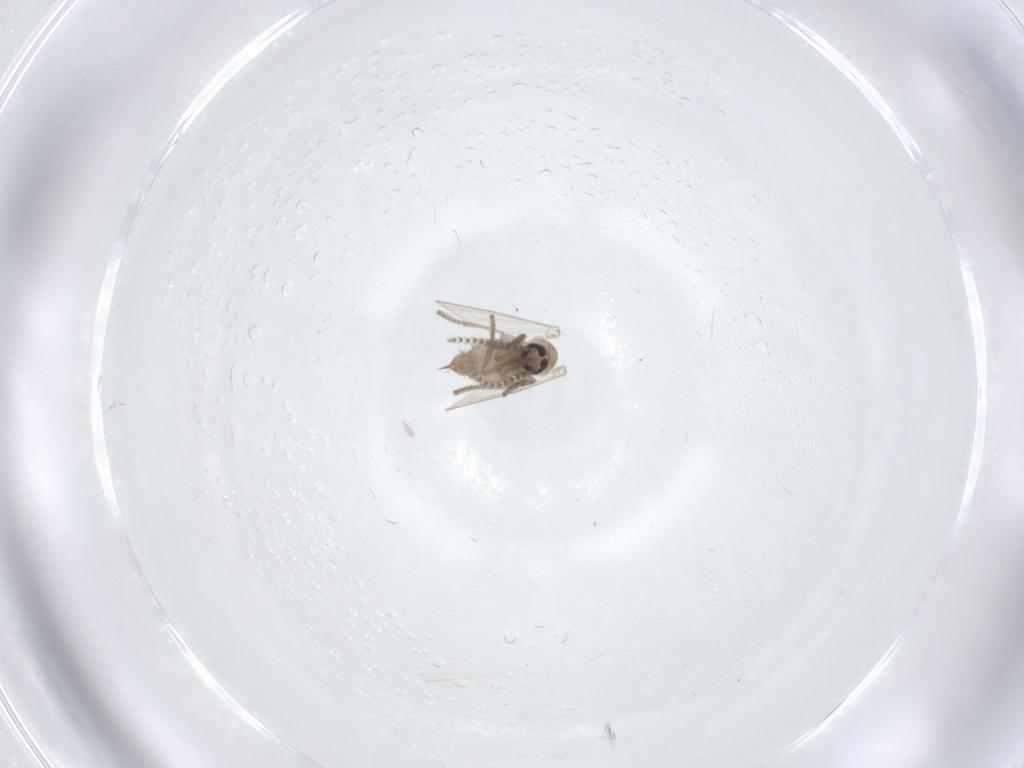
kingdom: Animalia
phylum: Arthropoda
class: Insecta
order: Diptera
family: Psychodidae
